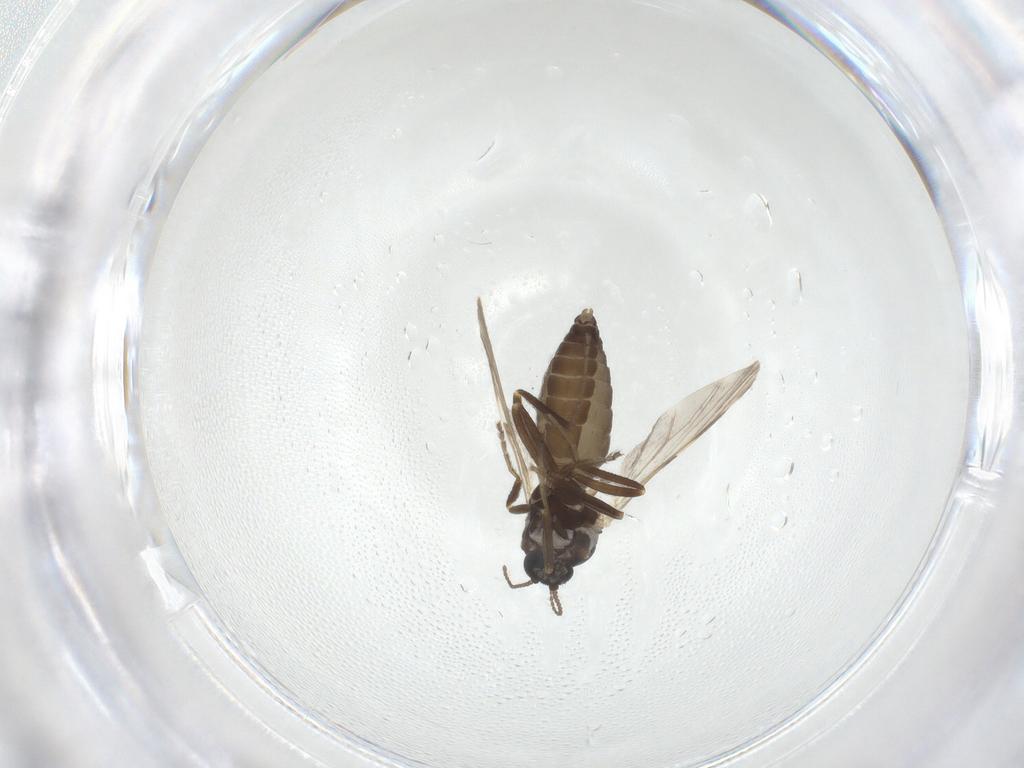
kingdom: Animalia
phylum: Arthropoda
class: Insecta
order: Diptera
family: Ceratopogonidae
